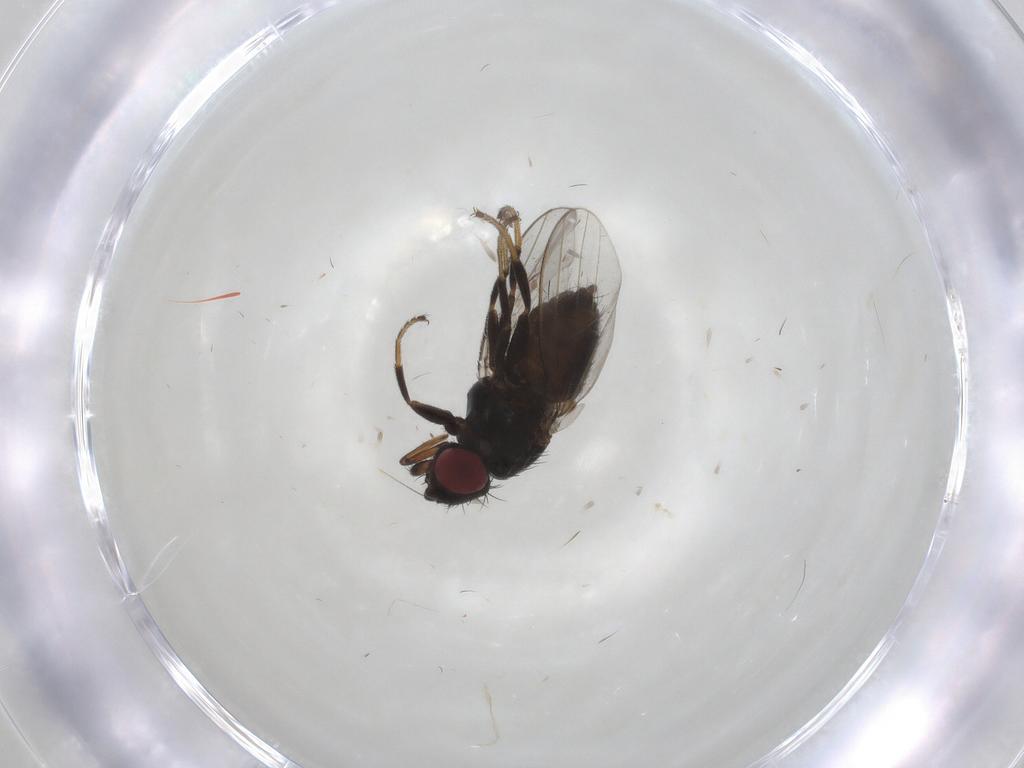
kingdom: Animalia
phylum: Arthropoda
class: Insecta
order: Diptera
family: Milichiidae
